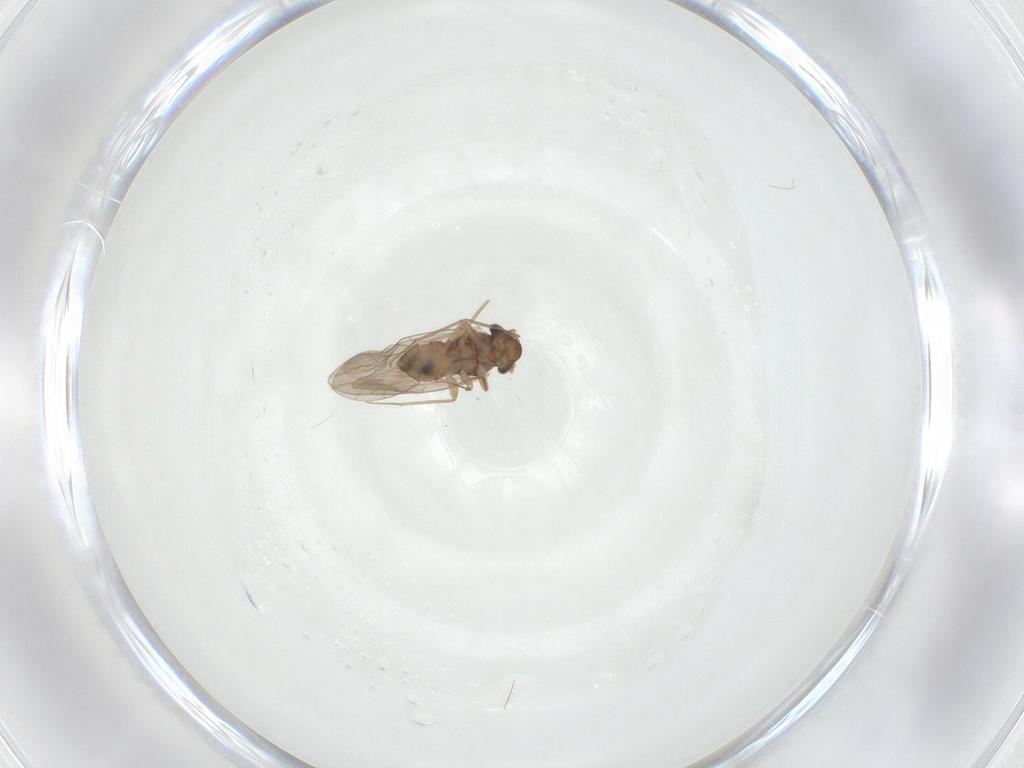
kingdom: Animalia
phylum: Arthropoda
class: Insecta
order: Psocodea
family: Lepidopsocidae
